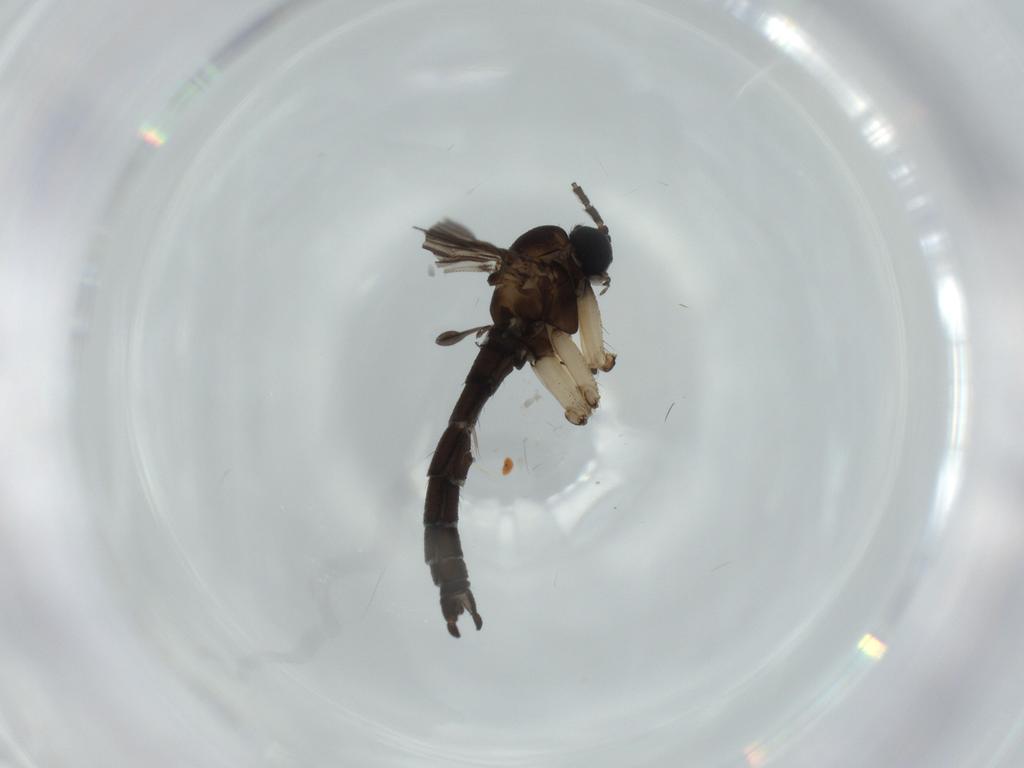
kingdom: Animalia
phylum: Arthropoda
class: Insecta
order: Diptera
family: Sciaridae
